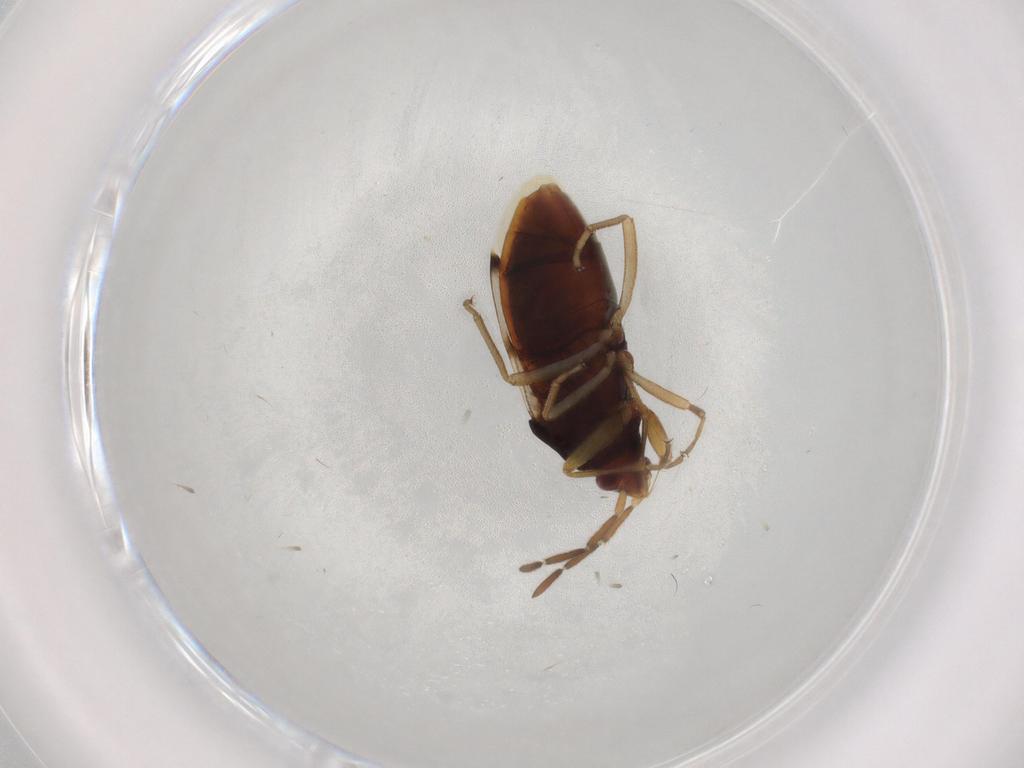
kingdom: Animalia
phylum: Arthropoda
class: Insecta
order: Hemiptera
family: Rhyparochromidae
